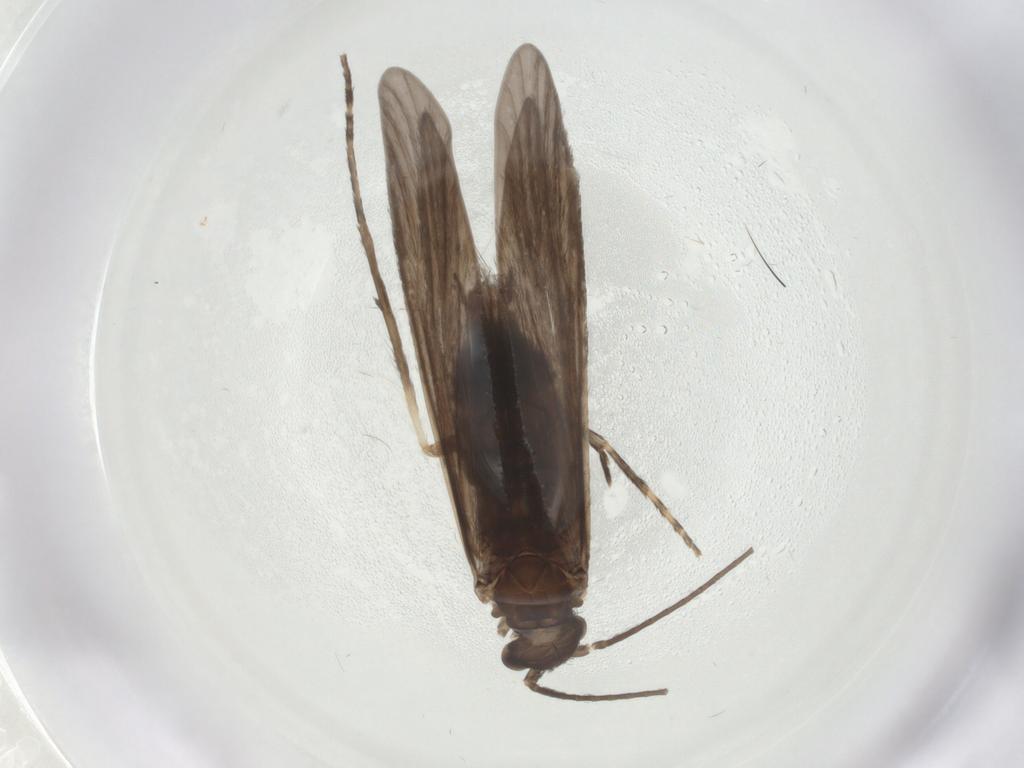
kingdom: Animalia
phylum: Arthropoda
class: Insecta
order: Trichoptera
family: Xiphocentronidae
